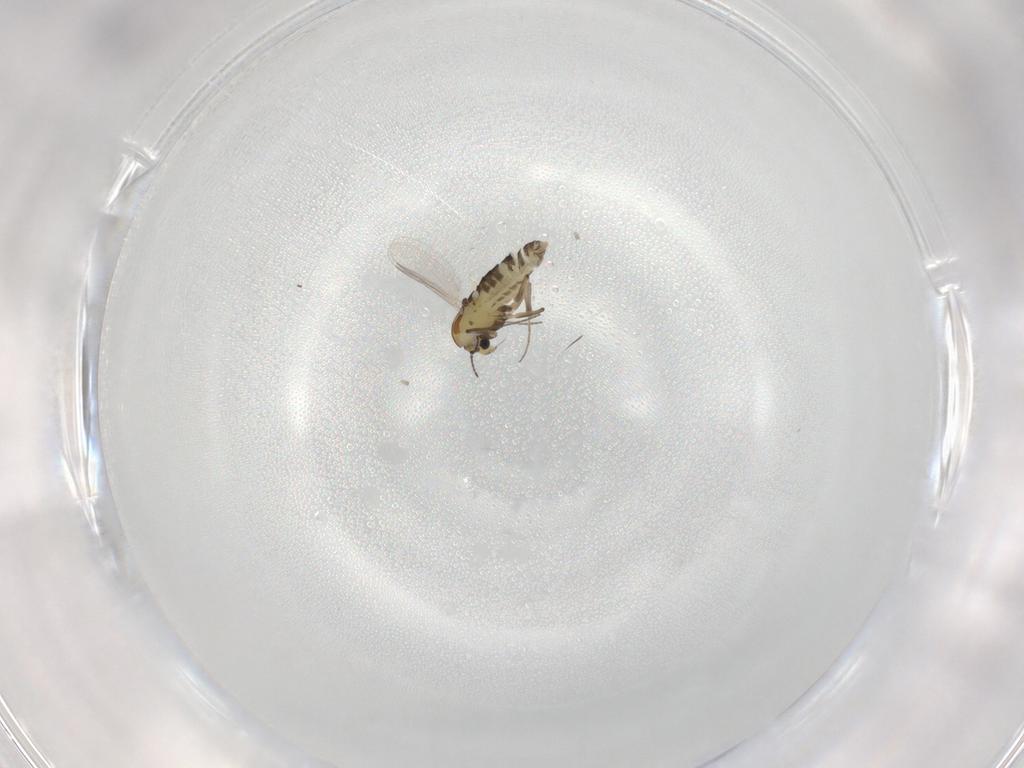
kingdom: Animalia
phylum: Arthropoda
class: Insecta
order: Diptera
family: Chironomidae
